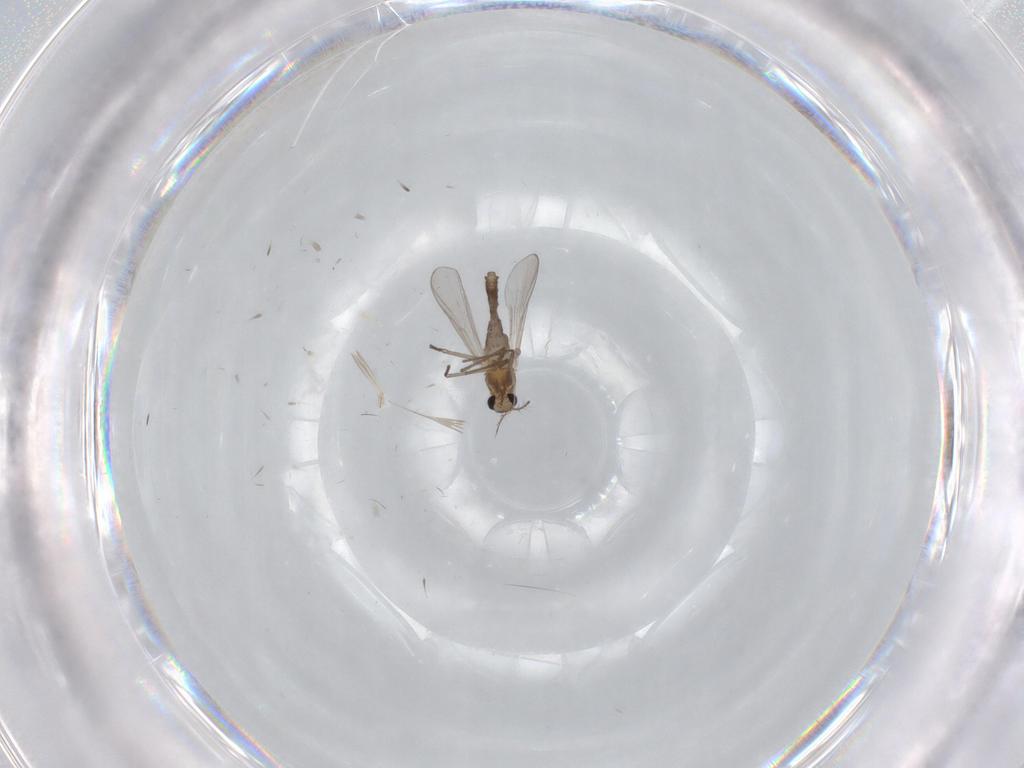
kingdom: Animalia
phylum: Arthropoda
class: Insecta
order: Diptera
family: Chironomidae
